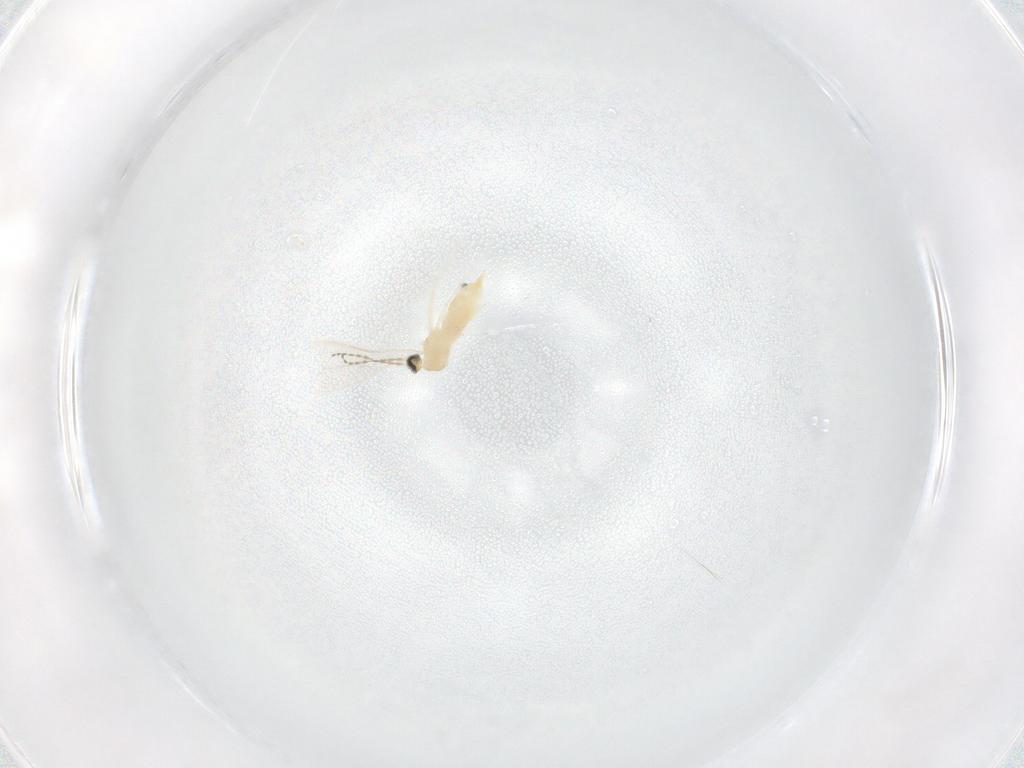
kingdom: Animalia
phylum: Arthropoda
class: Insecta
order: Diptera
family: Cecidomyiidae
